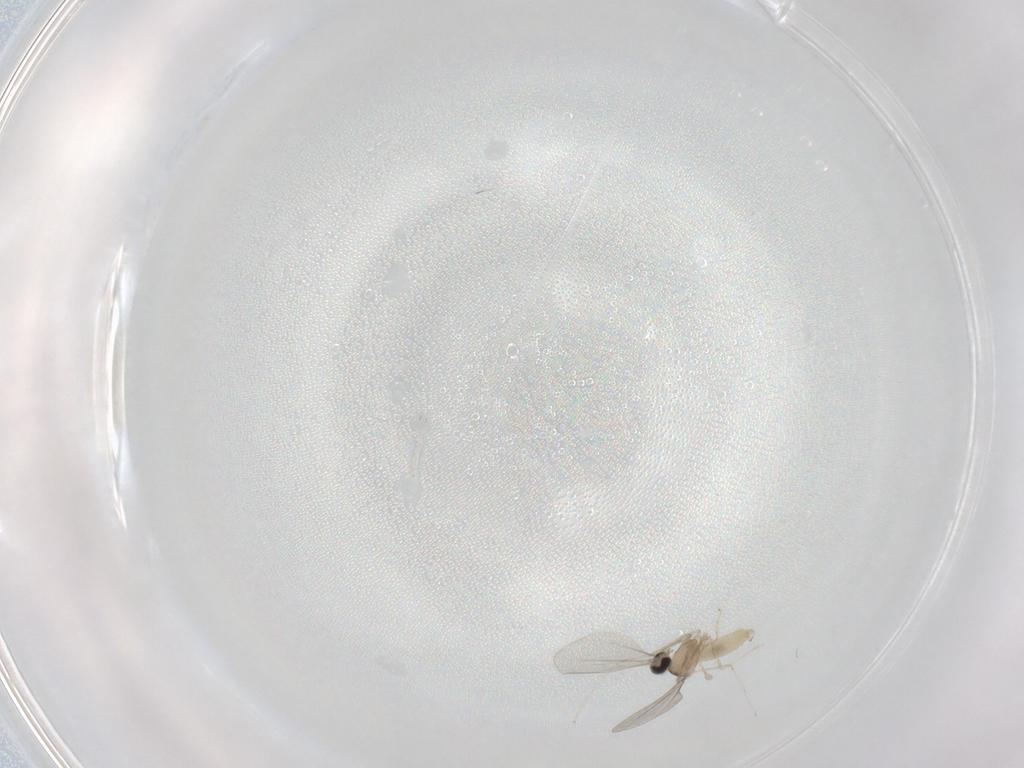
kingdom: Animalia
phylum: Arthropoda
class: Insecta
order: Diptera
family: Cecidomyiidae
